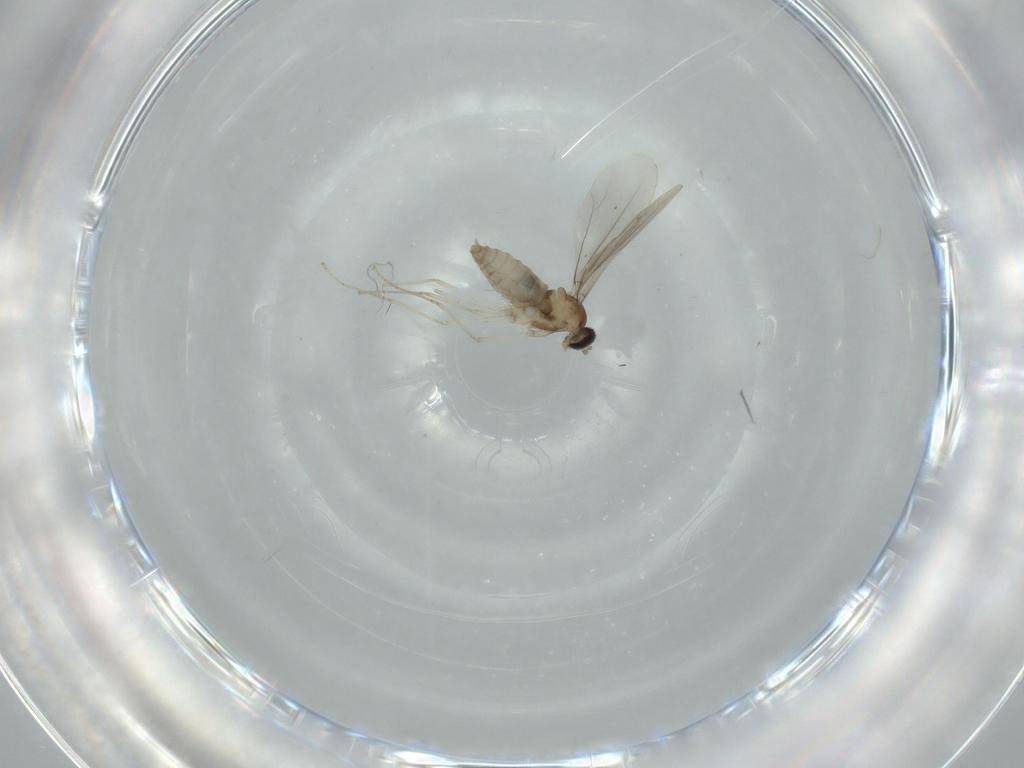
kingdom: Animalia
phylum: Arthropoda
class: Insecta
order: Diptera
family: Cecidomyiidae
